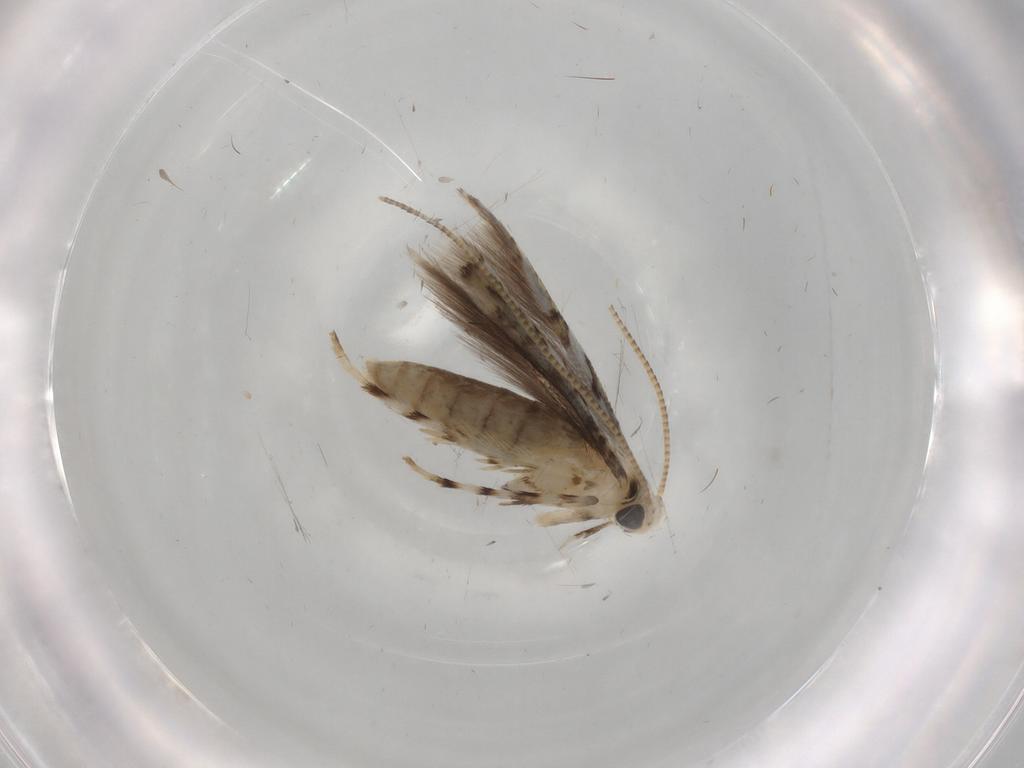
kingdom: Animalia
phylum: Arthropoda
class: Insecta
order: Lepidoptera
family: Gracillariidae
